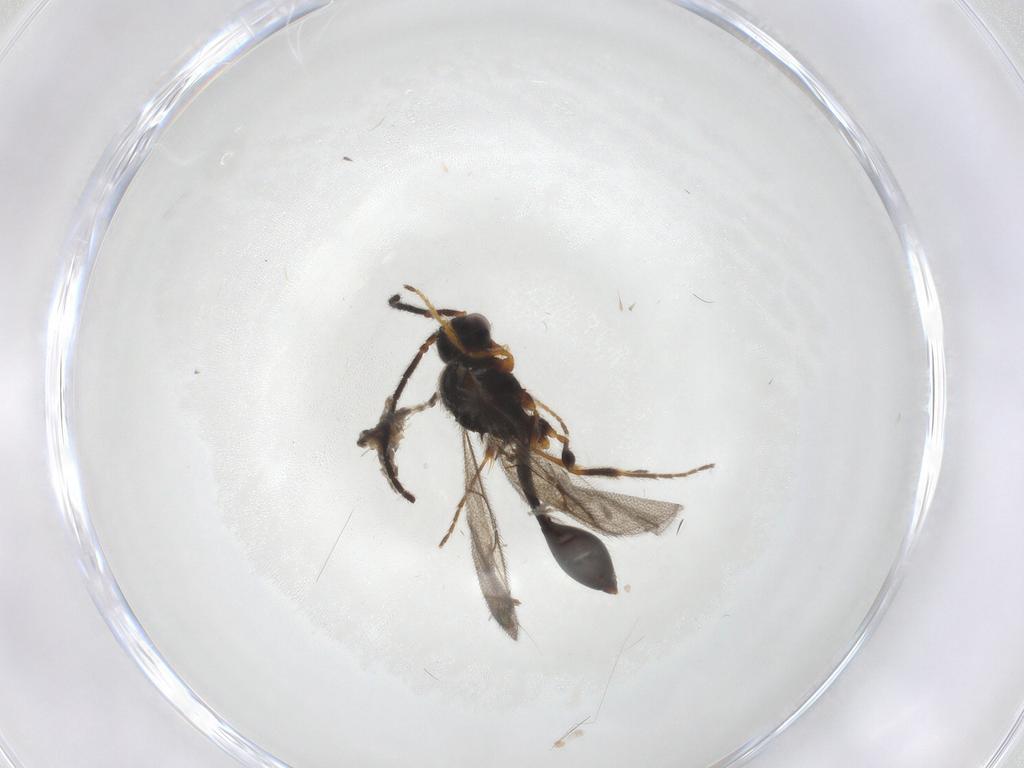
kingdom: Animalia
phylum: Arthropoda
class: Insecta
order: Hymenoptera
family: Diapriidae
